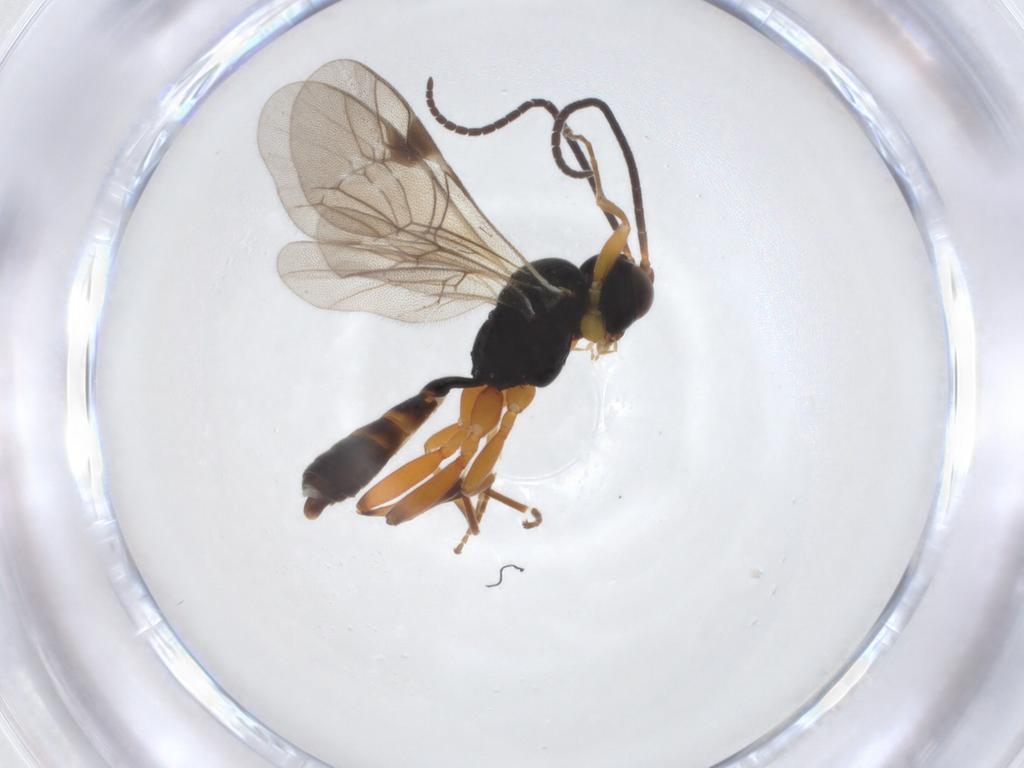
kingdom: Animalia
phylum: Arthropoda
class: Insecta
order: Hymenoptera
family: Ichneumonidae
